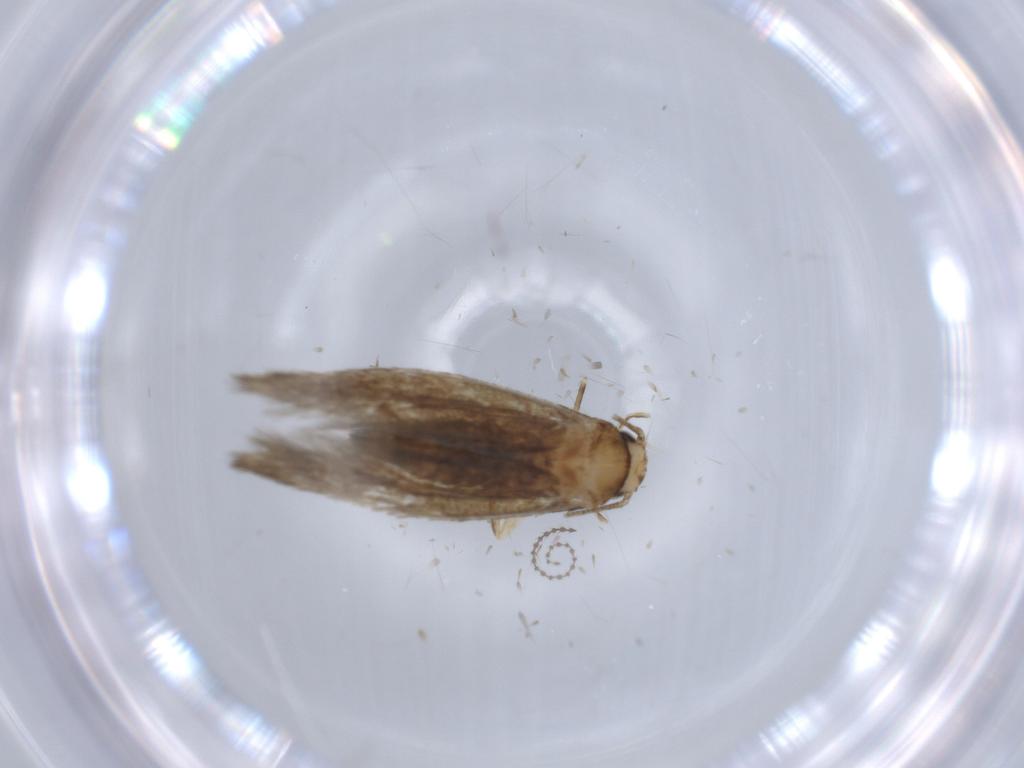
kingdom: Animalia
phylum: Arthropoda
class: Insecta
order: Lepidoptera
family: Tineidae
